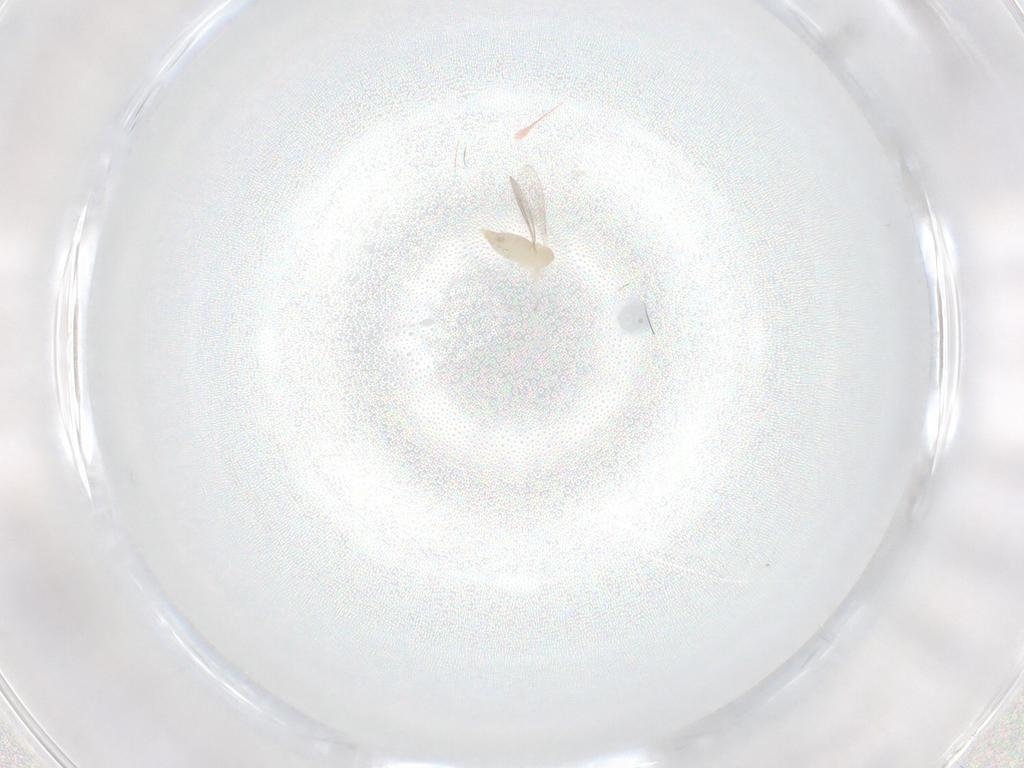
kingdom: Animalia
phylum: Arthropoda
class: Insecta
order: Diptera
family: Cecidomyiidae
